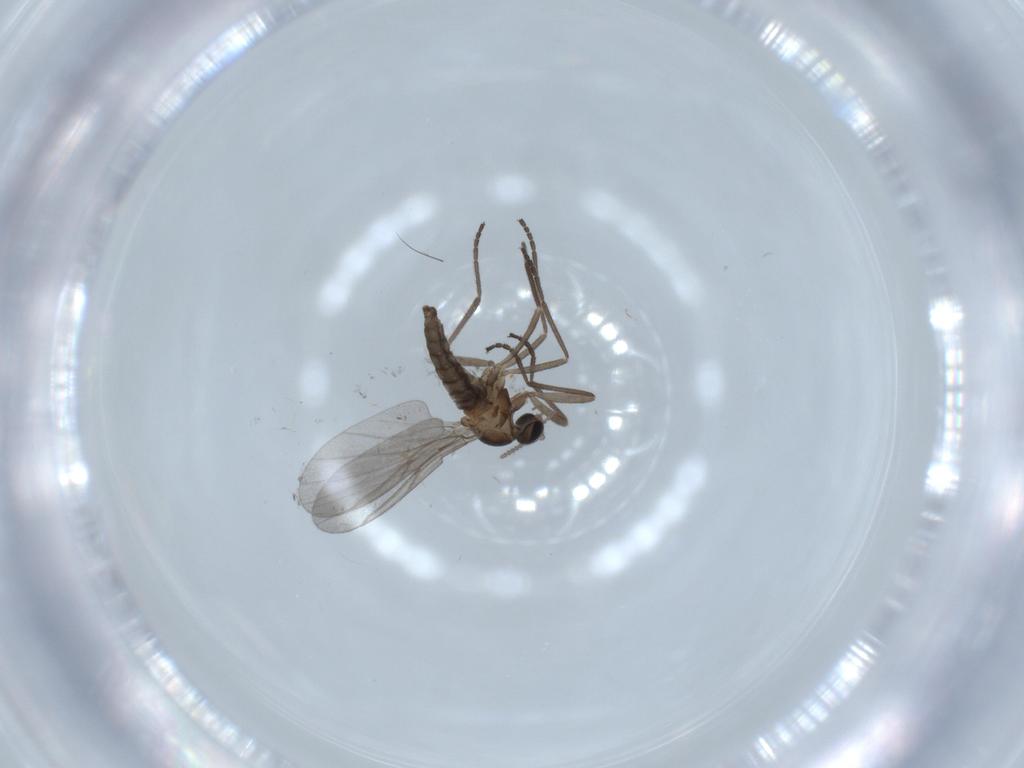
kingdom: Animalia
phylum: Arthropoda
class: Insecta
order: Diptera
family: Cecidomyiidae
